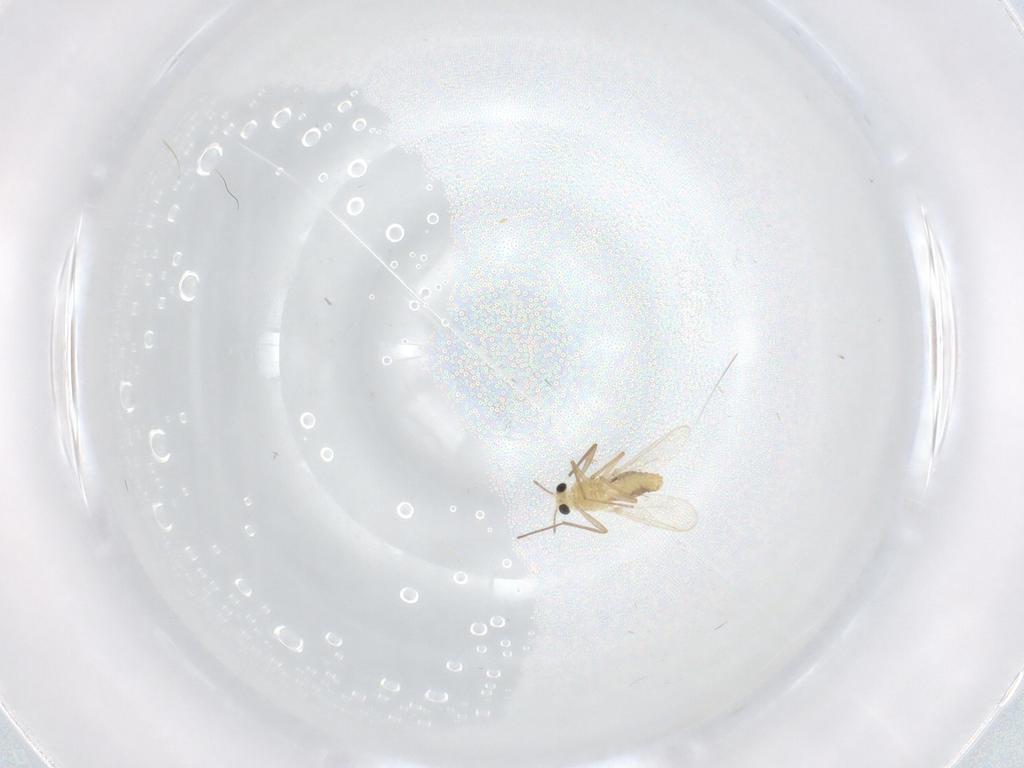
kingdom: Animalia
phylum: Arthropoda
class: Insecta
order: Diptera
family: Chironomidae
